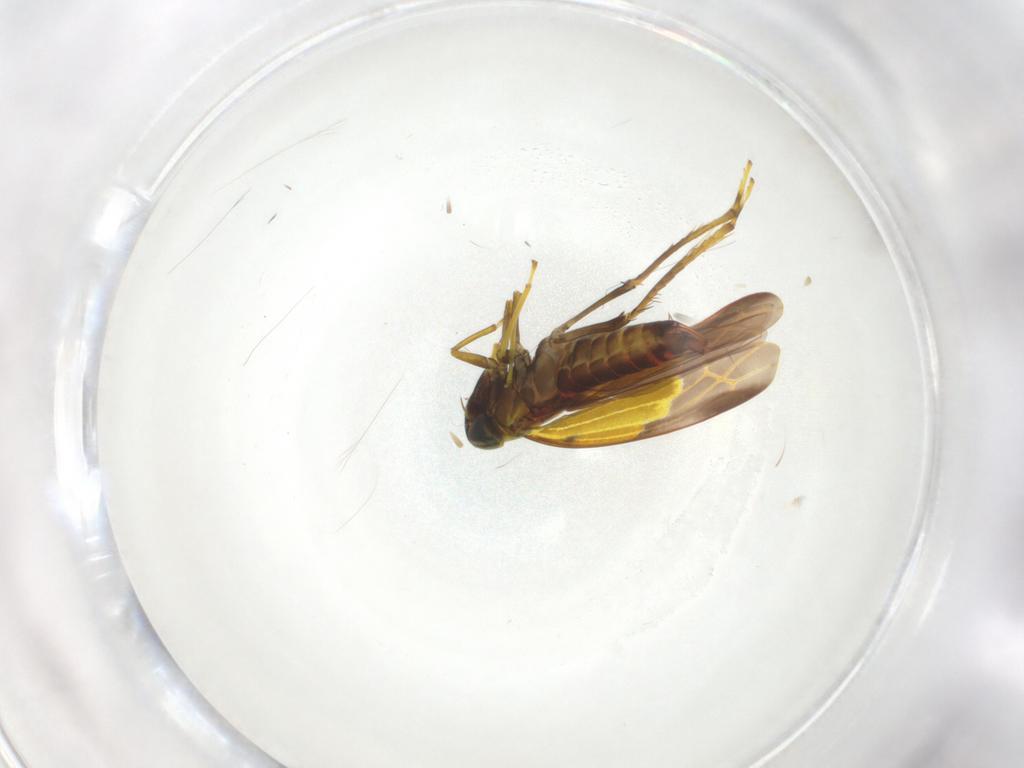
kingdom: Animalia
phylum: Arthropoda
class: Insecta
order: Hemiptera
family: Cicadellidae
